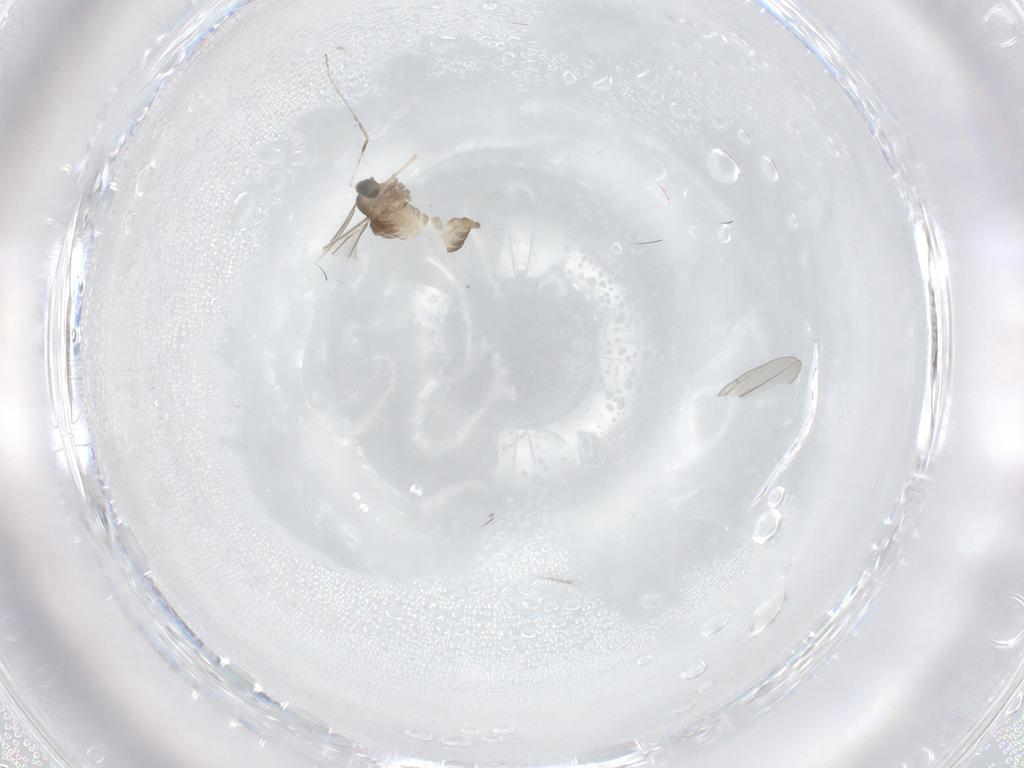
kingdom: Animalia
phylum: Arthropoda
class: Insecta
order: Diptera
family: Cecidomyiidae
